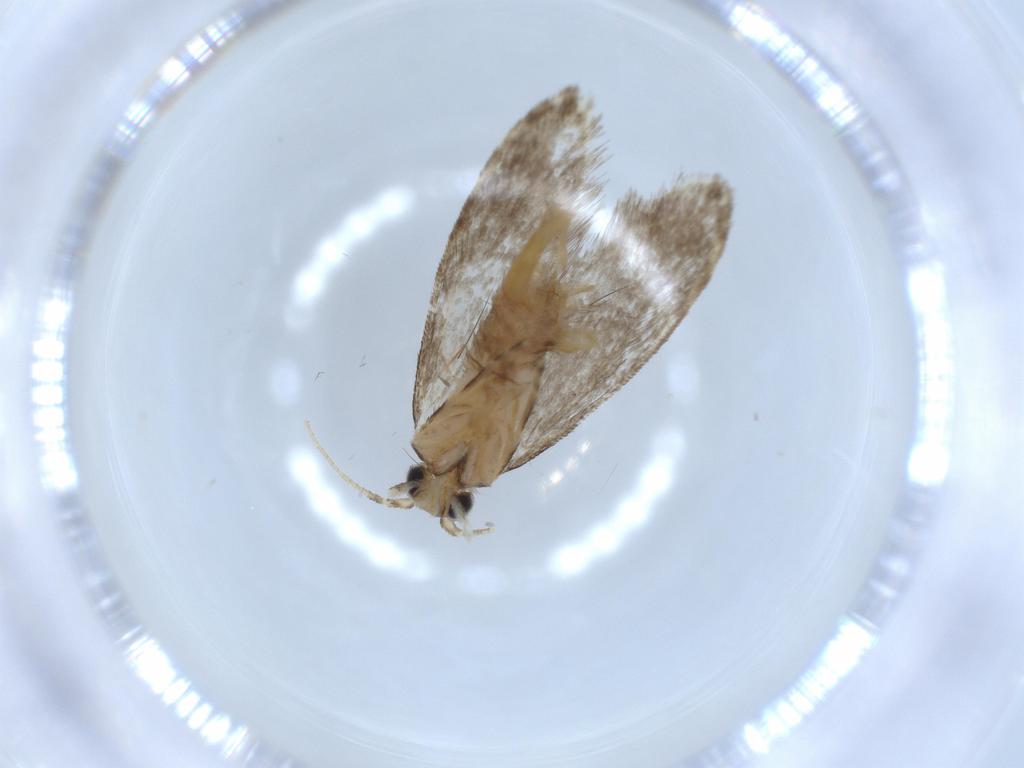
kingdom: Animalia
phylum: Arthropoda
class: Insecta
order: Lepidoptera
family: Tineidae
